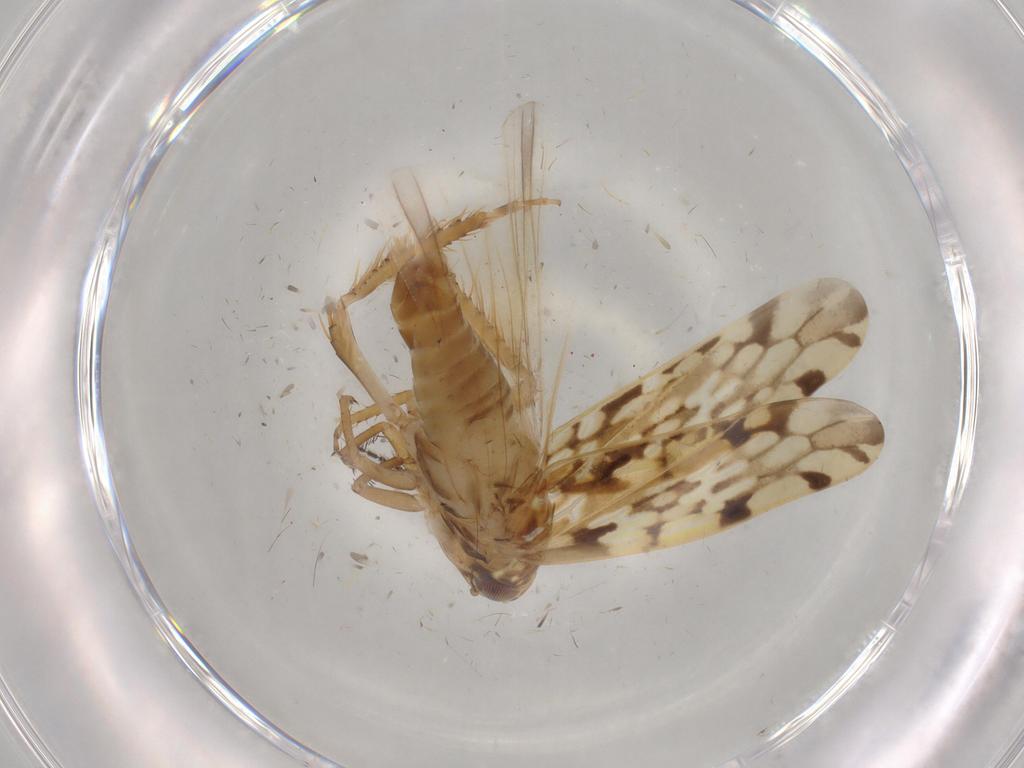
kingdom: Animalia
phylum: Arthropoda
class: Insecta
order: Hemiptera
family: Cicadellidae
